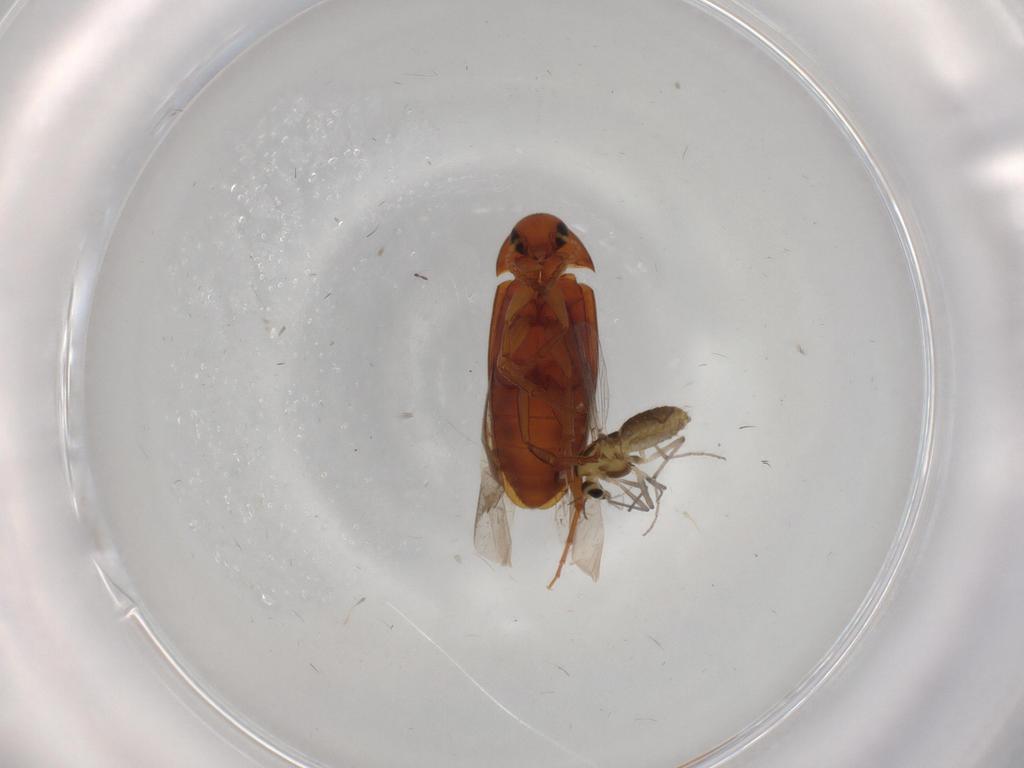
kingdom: Animalia
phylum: Arthropoda
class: Insecta
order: Coleoptera
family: Scraptiidae
